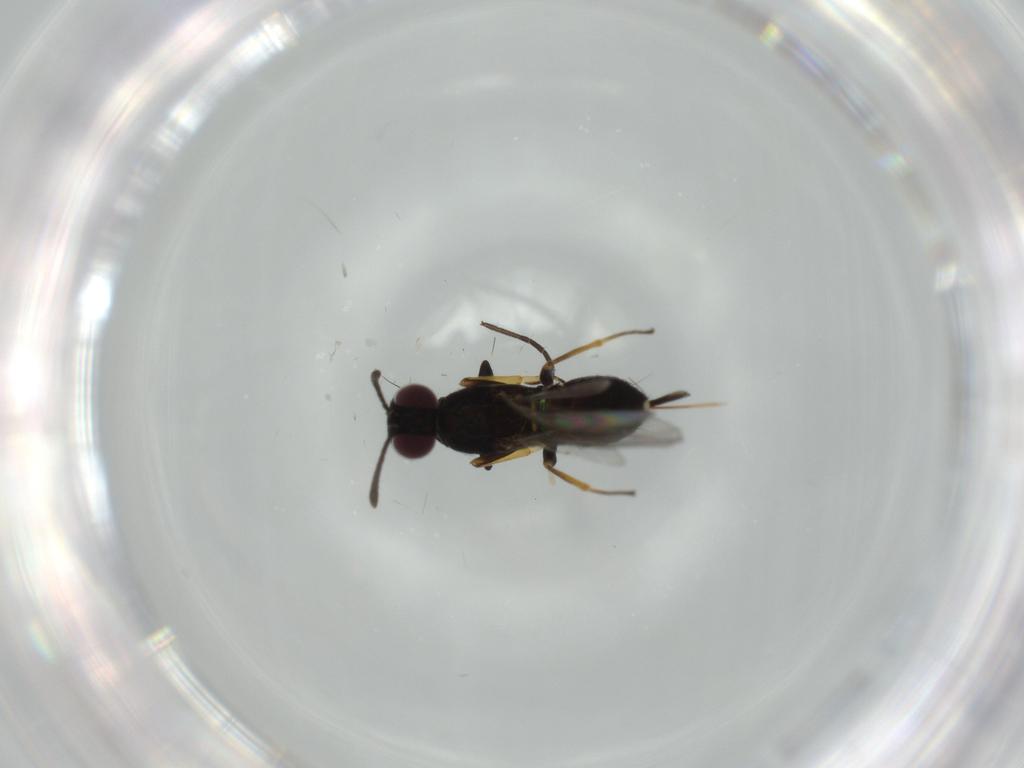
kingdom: Animalia
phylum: Arthropoda
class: Insecta
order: Hymenoptera
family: Eupelmidae
